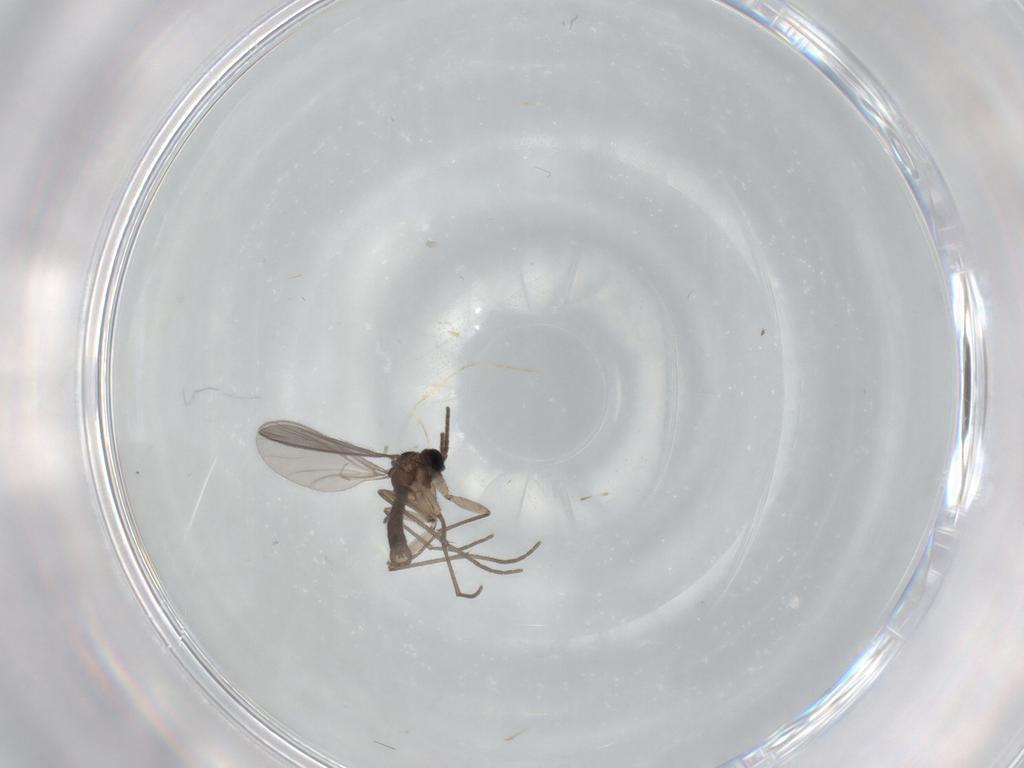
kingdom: Animalia
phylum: Arthropoda
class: Insecta
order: Diptera
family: Sciaridae
